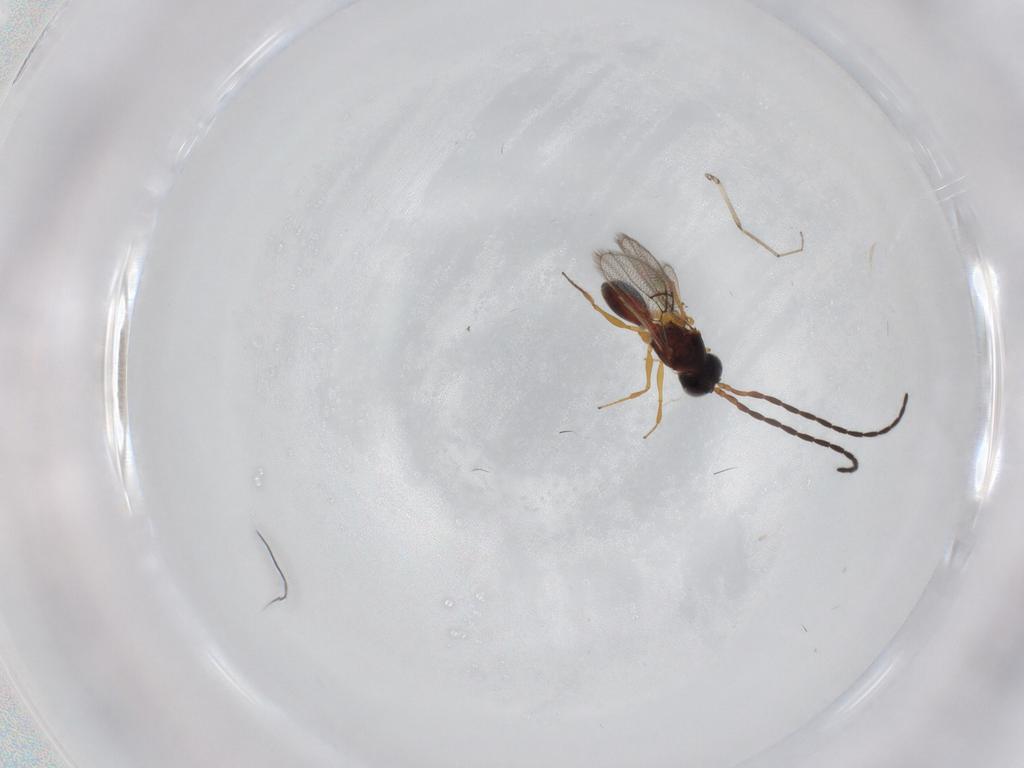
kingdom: Animalia
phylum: Arthropoda
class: Insecta
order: Hymenoptera
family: Figitidae
